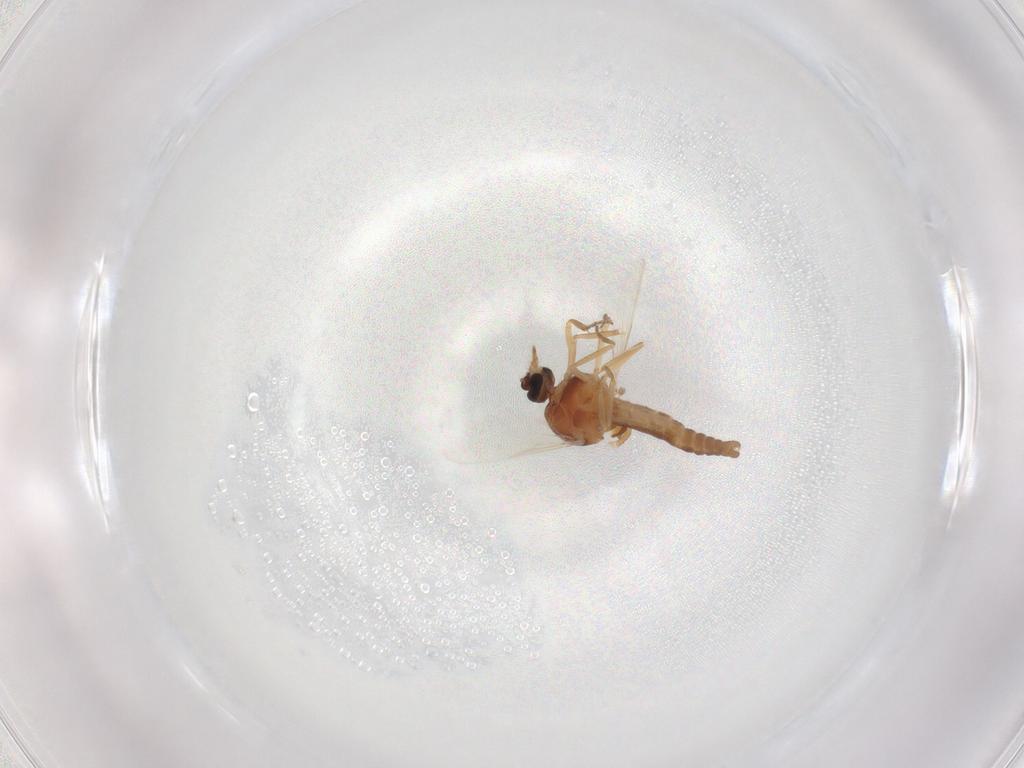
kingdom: Animalia
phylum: Arthropoda
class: Insecta
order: Diptera
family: Ceratopogonidae
